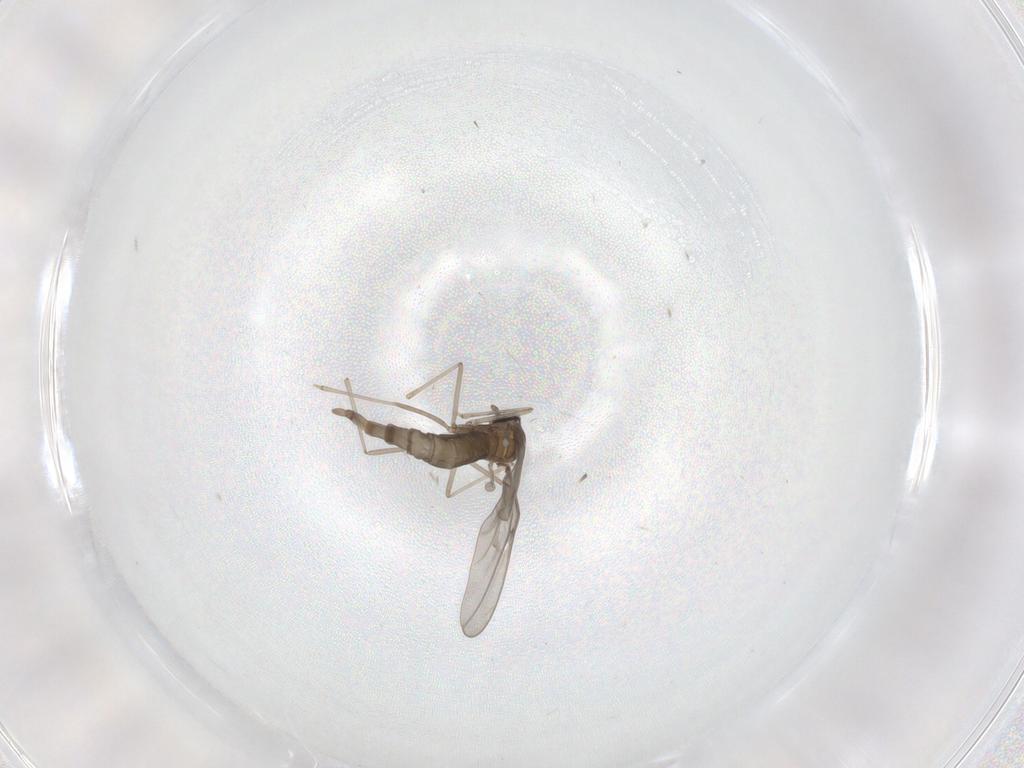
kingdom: Animalia
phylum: Arthropoda
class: Insecta
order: Diptera
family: Cecidomyiidae
